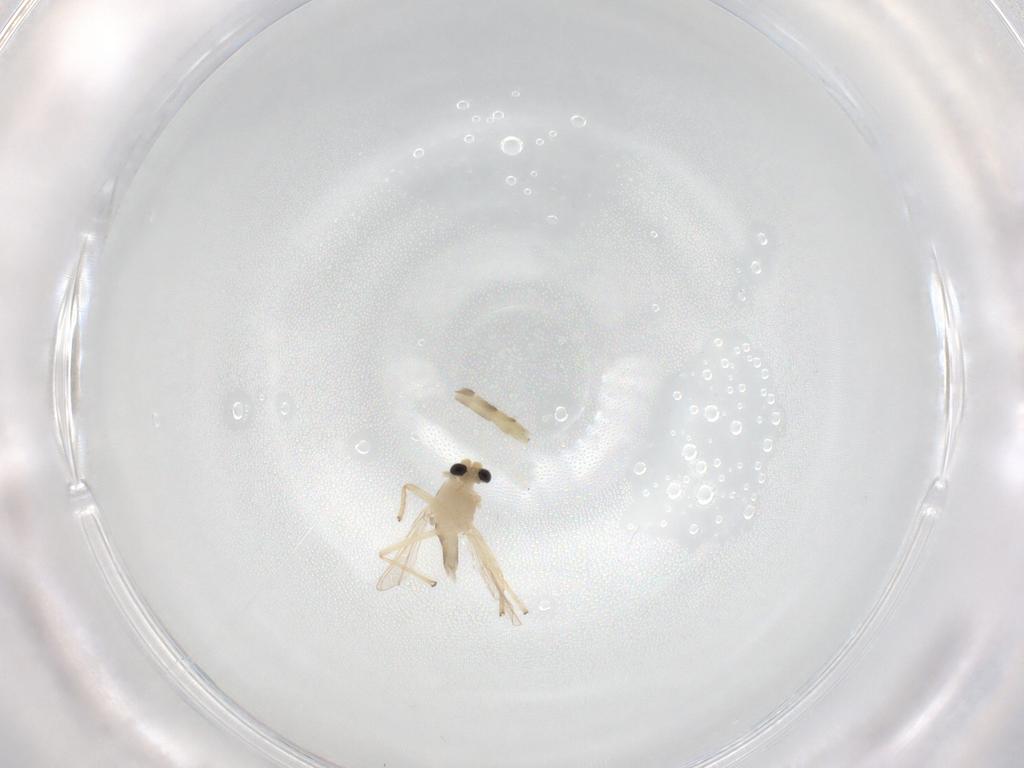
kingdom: Animalia
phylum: Arthropoda
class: Insecta
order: Diptera
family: Chironomidae
